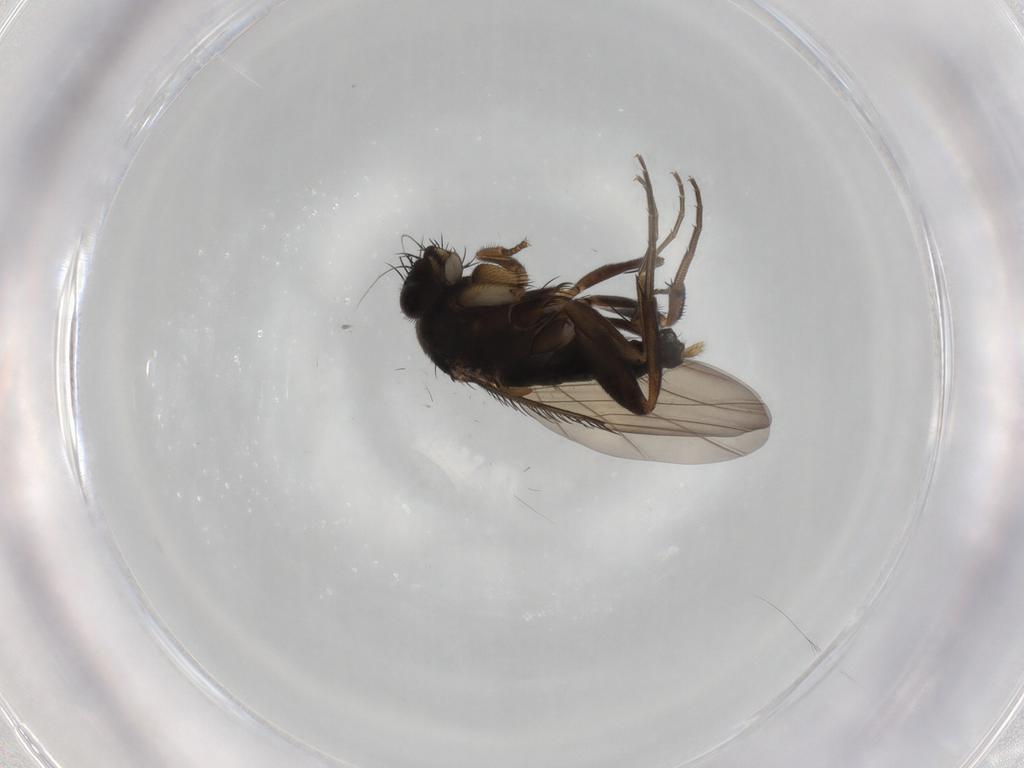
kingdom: Animalia
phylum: Arthropoda
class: Insecta
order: Diptera
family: Phoridae
